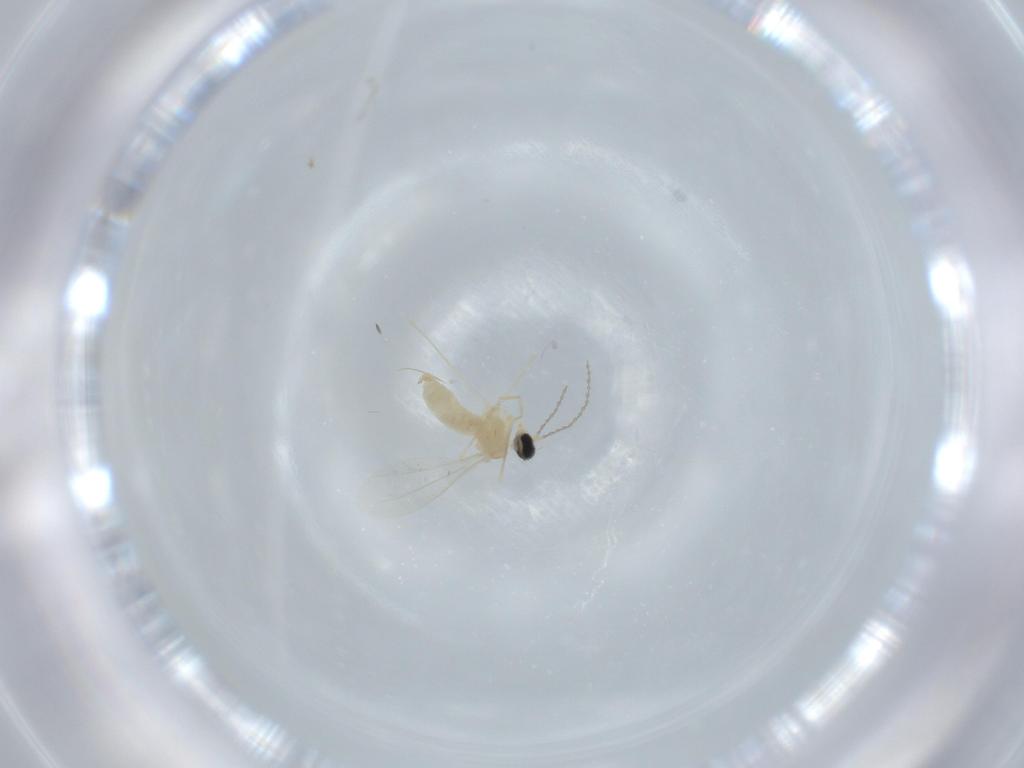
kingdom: Animalia
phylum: Arthropoda
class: Insecta
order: Diptera
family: Cecidomyiidae
